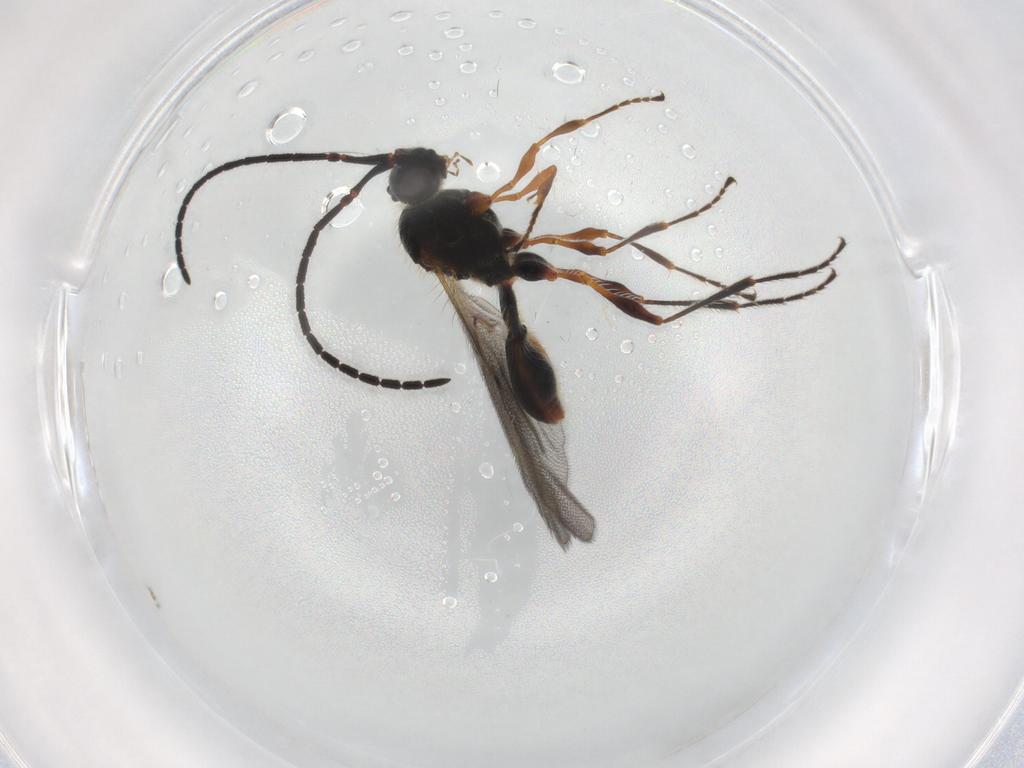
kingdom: Animalia
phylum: Arthropoda
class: Insecta
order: Hymenoptera
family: Diapriidae
